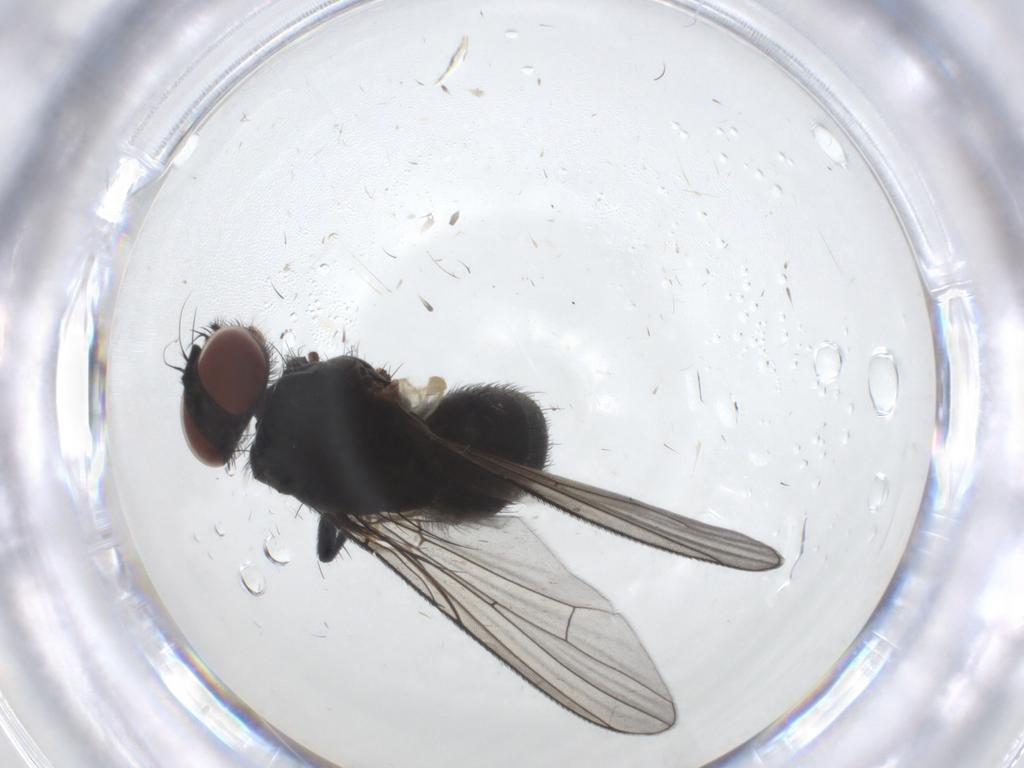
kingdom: Animalia
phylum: Arthropoda
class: Insecta
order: Diptera
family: Muscidae
